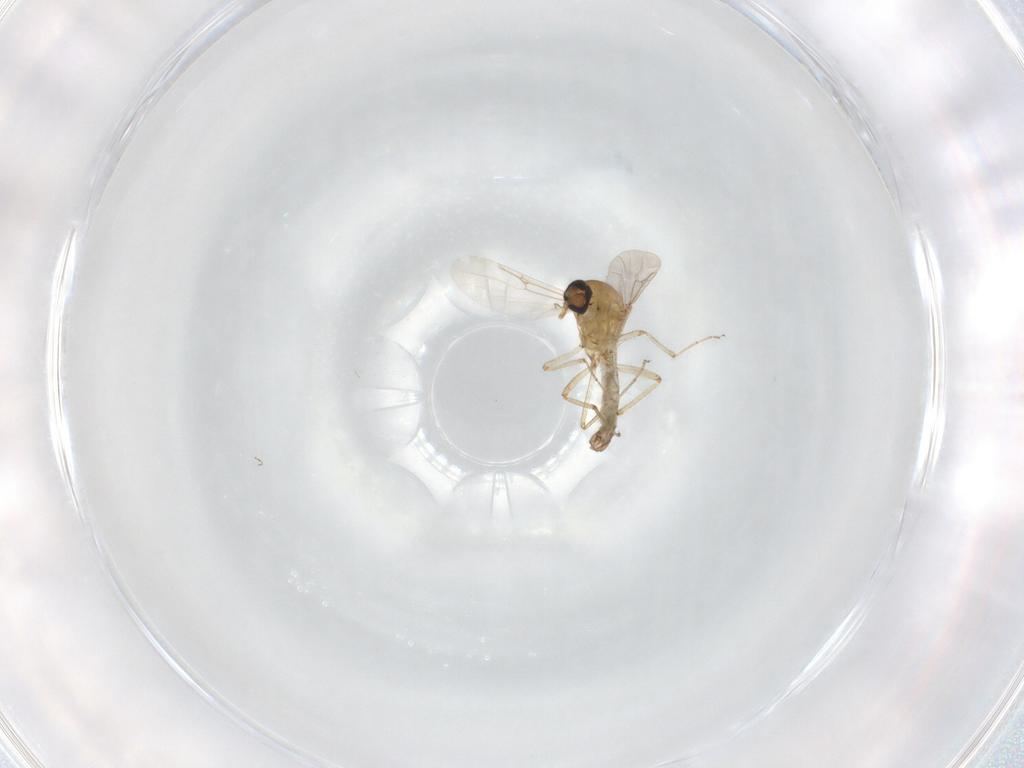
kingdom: Animalia
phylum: Arthropoda
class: Insecta
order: Diptera
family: Ceratopogonidae
